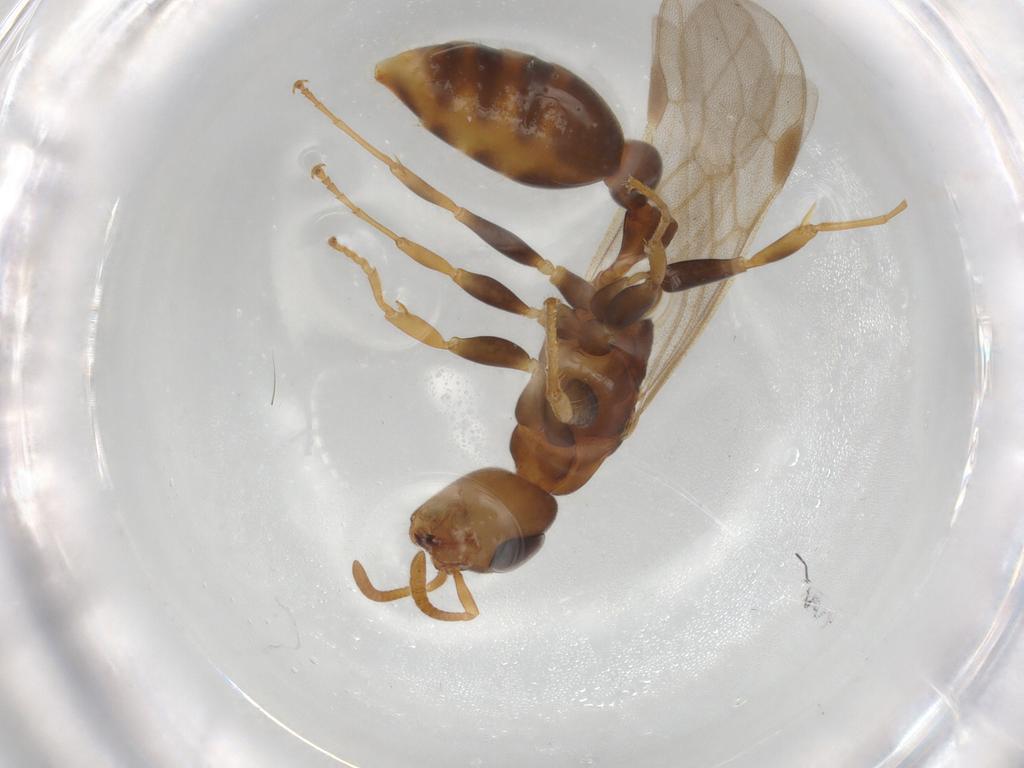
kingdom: Animalia
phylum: Arthropoda
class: Insecta
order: Hymenoptera
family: Formicidae
